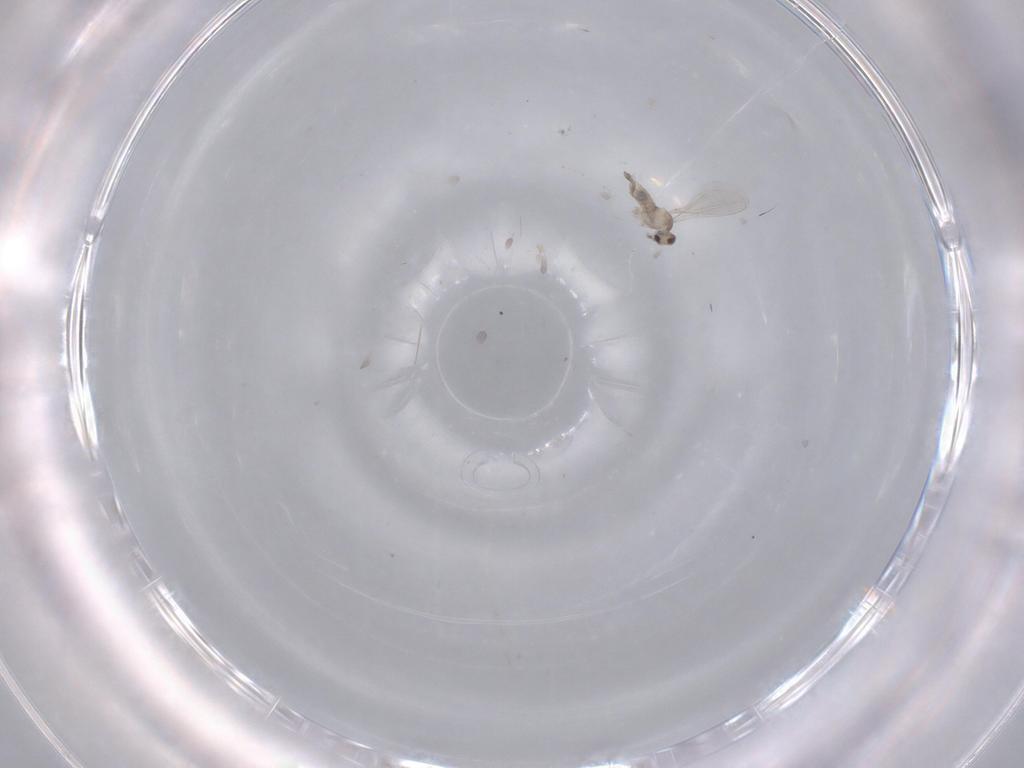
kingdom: Animalia
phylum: Arthropoda
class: Insecta
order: Diptera
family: Cecidomyiidae
